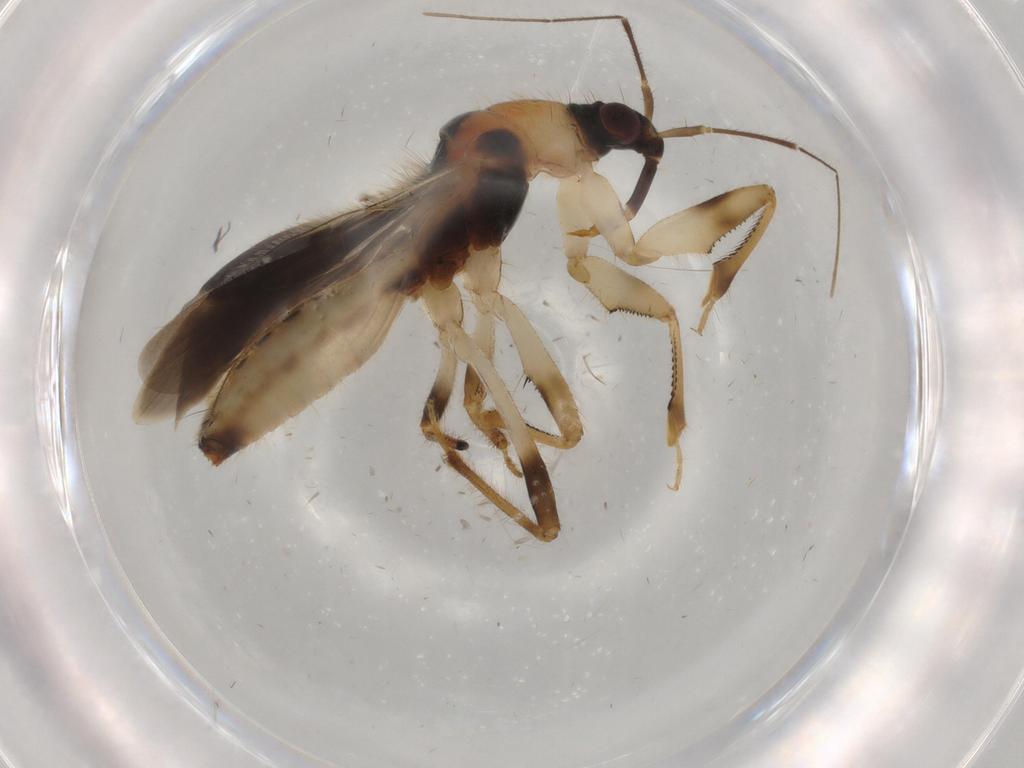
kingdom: Animalia
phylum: Arthropoda
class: Insecta
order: Hemiptera
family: Nabidae
